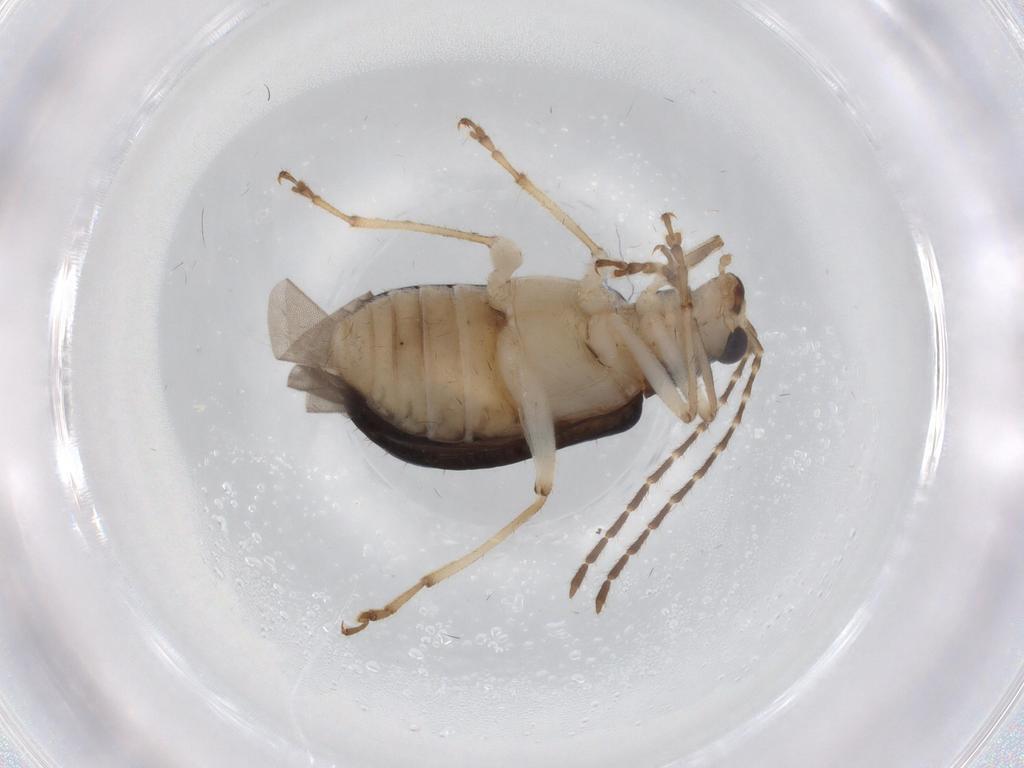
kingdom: Animalia
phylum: Arthropoda
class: Insecta
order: Coleoptera
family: Chrysomelidae
